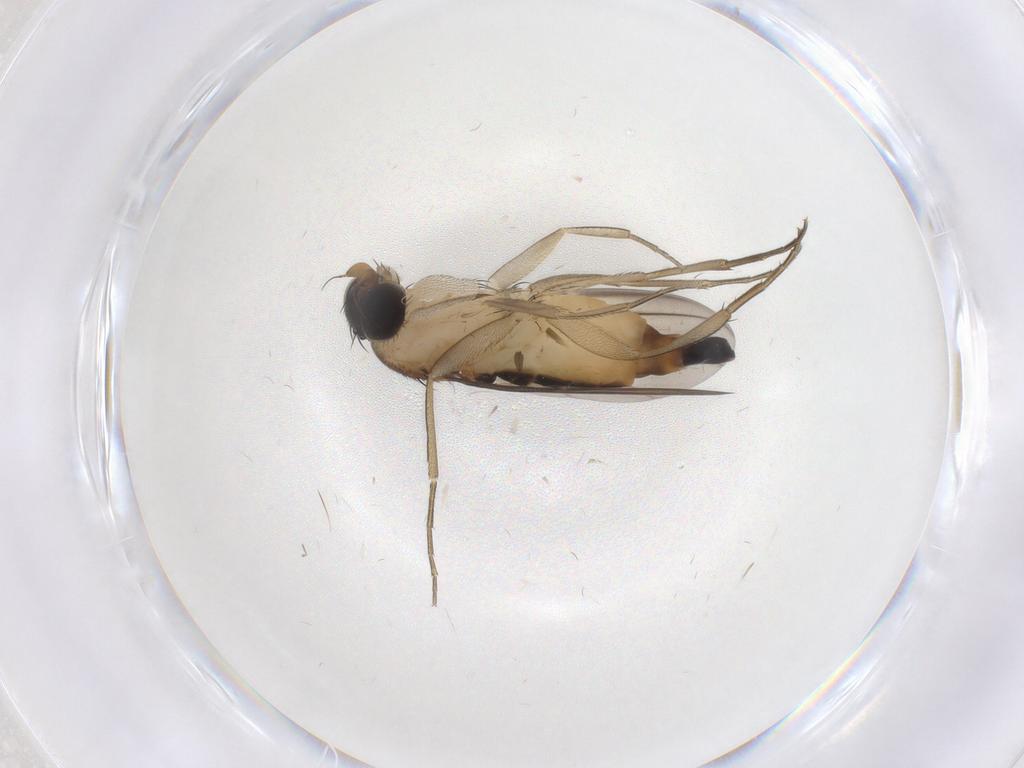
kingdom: Animalia
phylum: Arthropoda
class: Insecta
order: Diptera
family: Phoridae
